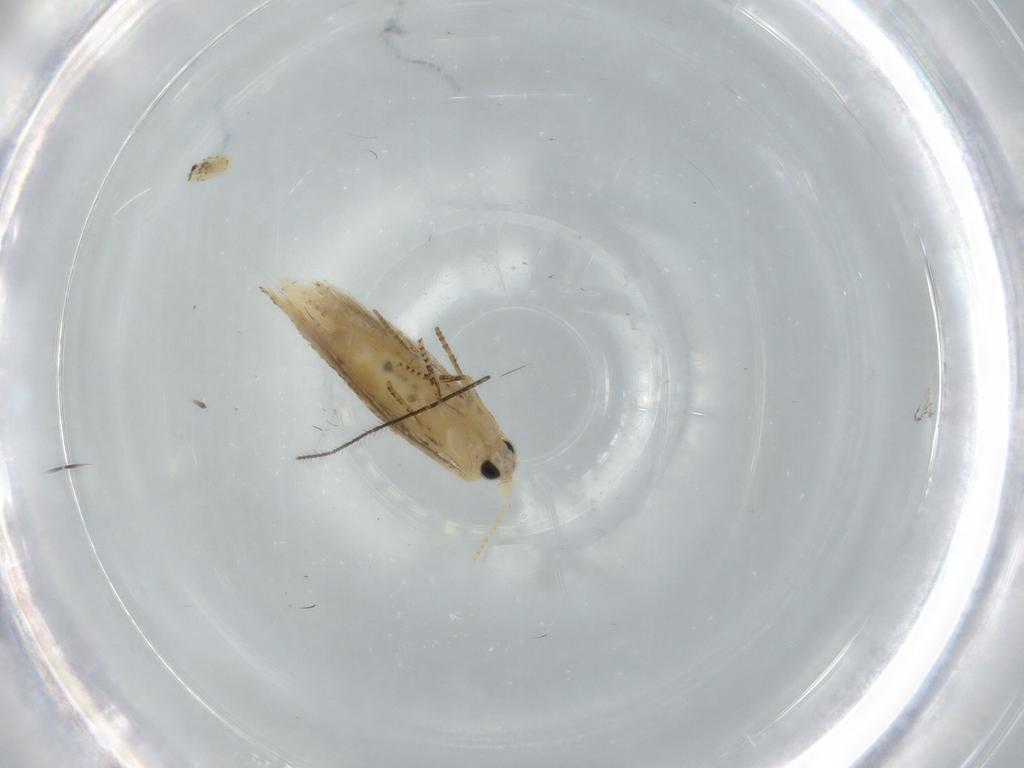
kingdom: Animalia
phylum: Arthropoda
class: Insecta
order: Lepidoptera
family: Bucculatricidae
